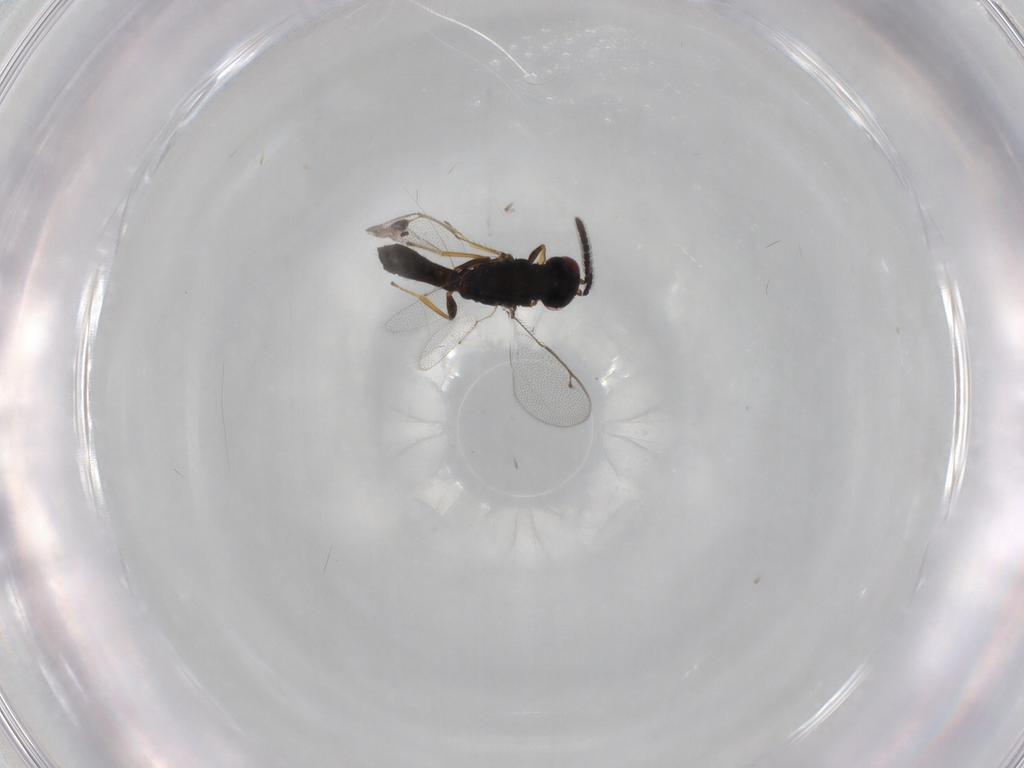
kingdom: Animalia
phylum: Arthropoda
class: Insecta
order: Hymenoptera
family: Pteromalidae
